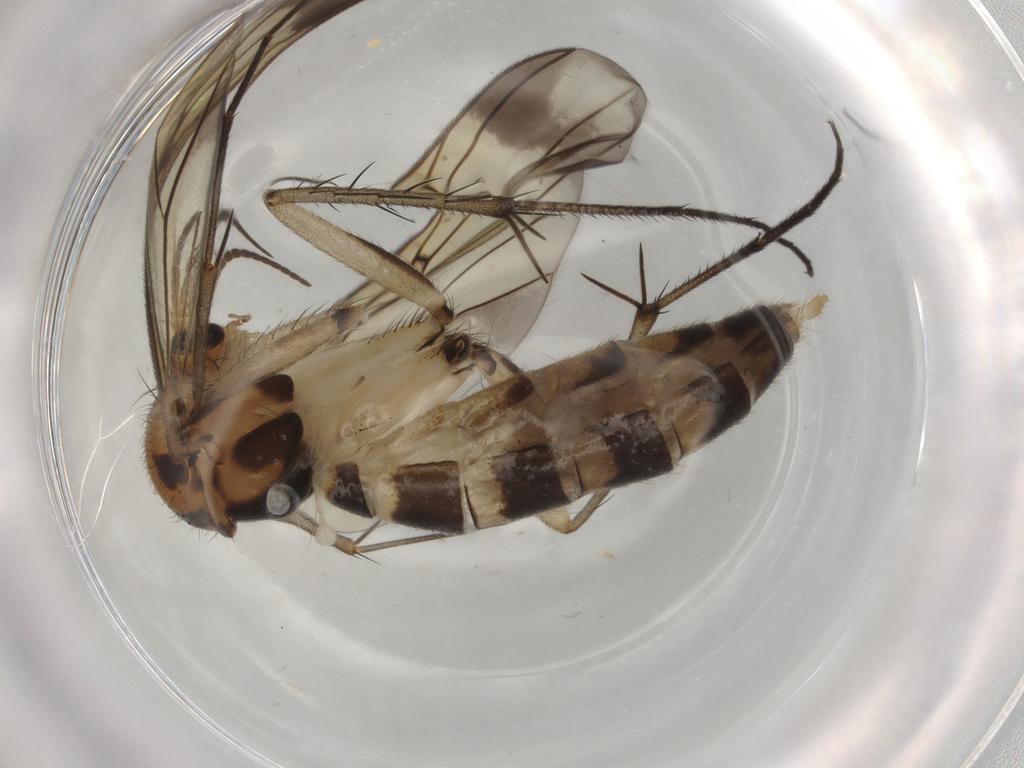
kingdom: Animalia
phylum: Arthropoda
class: Insecta
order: Diptera
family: Mycetophilidae
